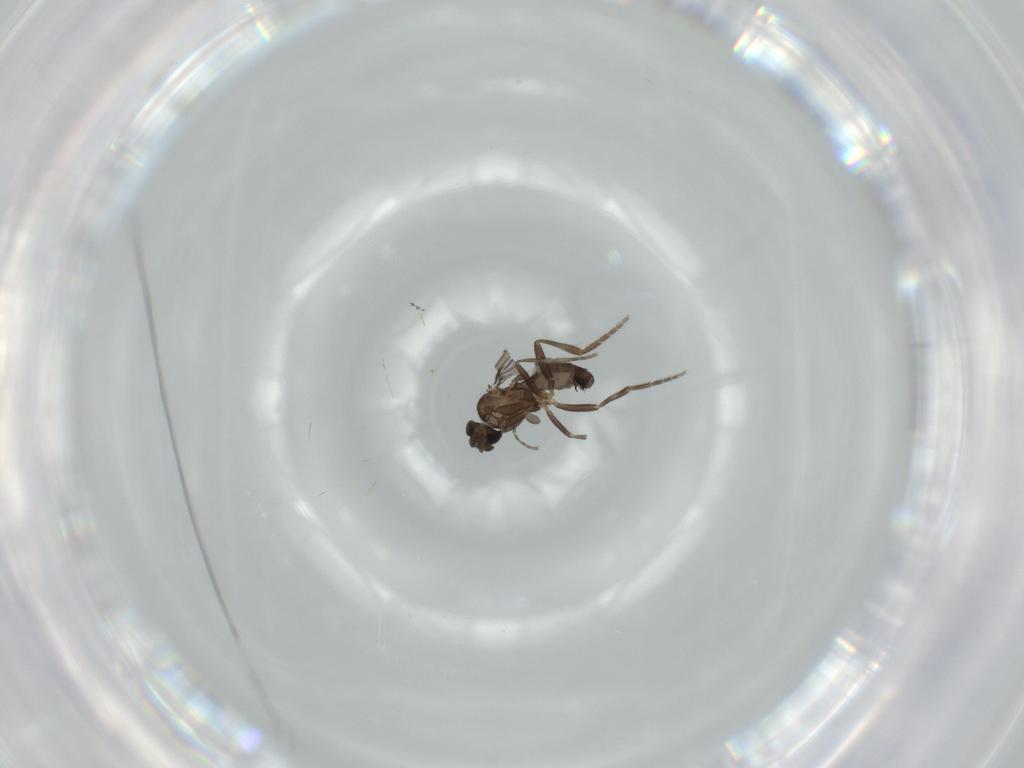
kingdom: Animalia
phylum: Arthropoda
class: Insecta
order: Diptera
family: Phoridae
